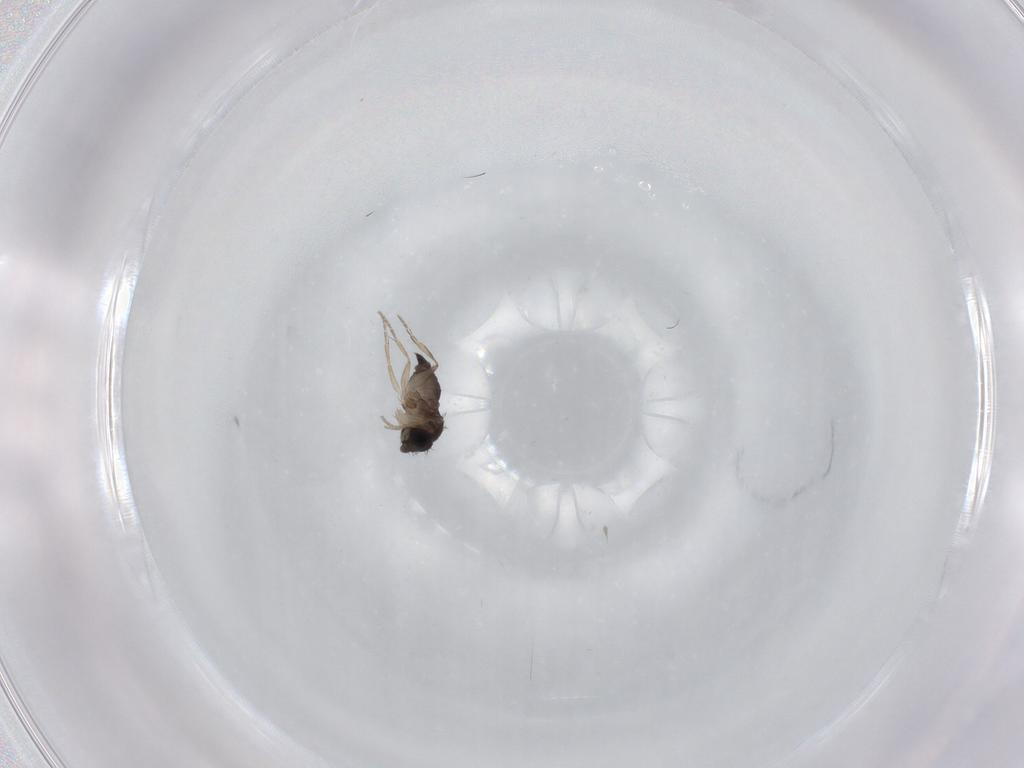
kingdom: Animalia
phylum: Arthropoda
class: Insecta
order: Diptera
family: Phoridae
